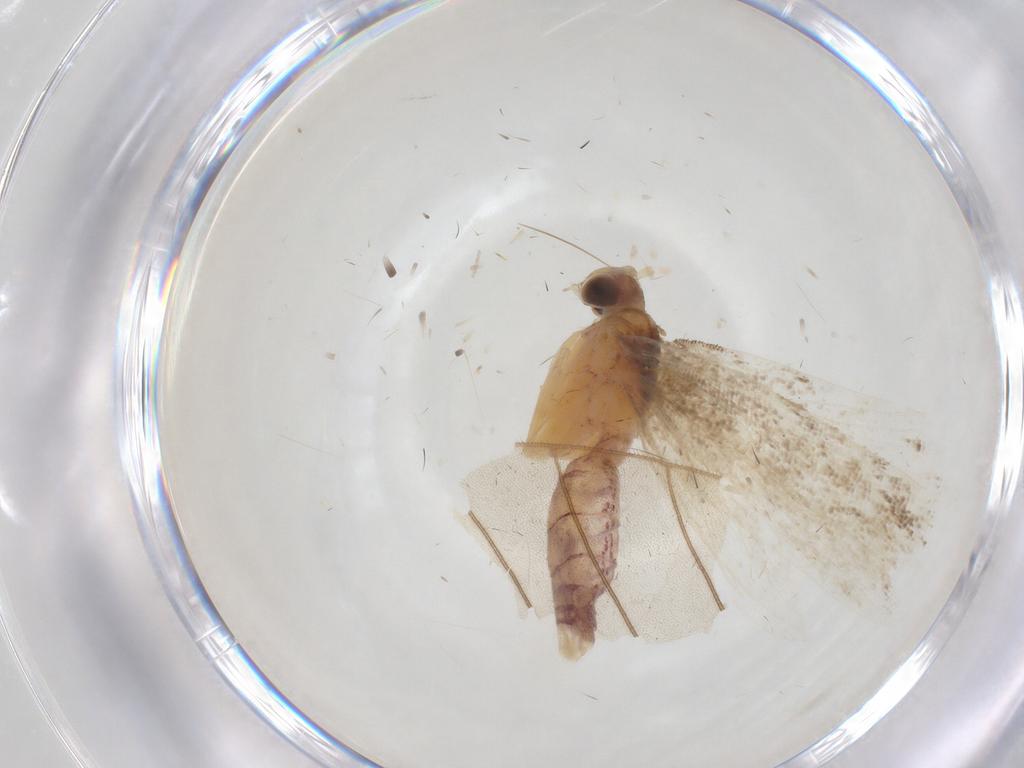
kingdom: Animalia
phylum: Arthropoda
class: Insecta
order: Lepidoptera
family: Gelechiidae
